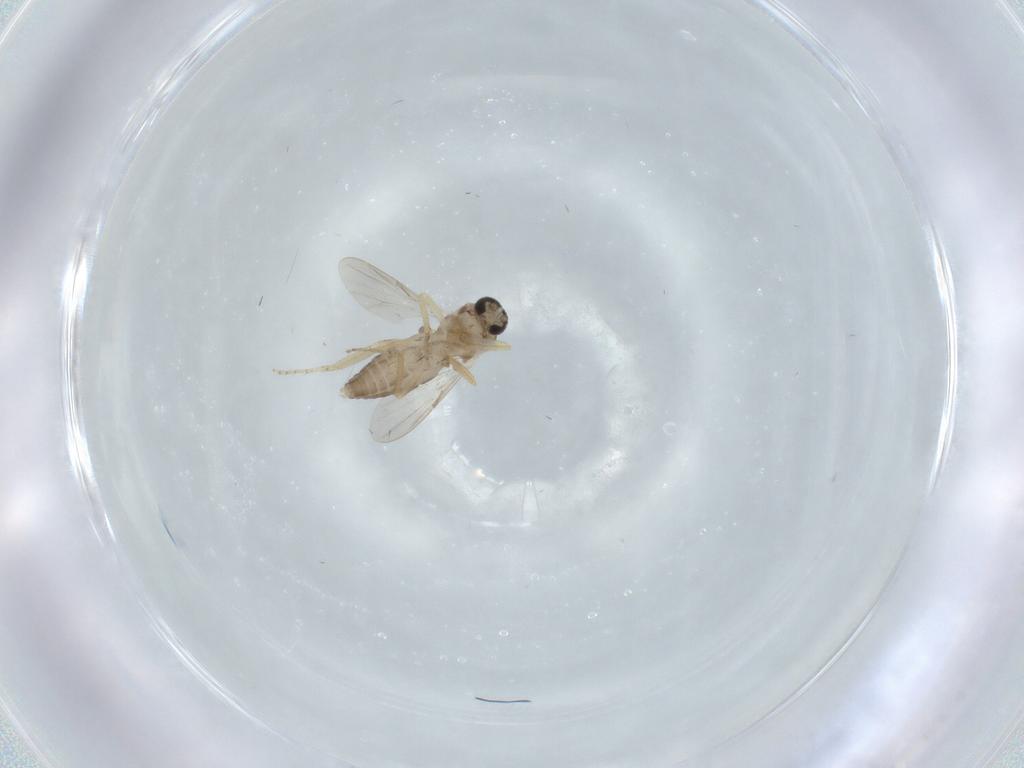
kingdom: Animalia
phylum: Arthropoda
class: Insecta
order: Diptera
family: Ceratopogonidae
